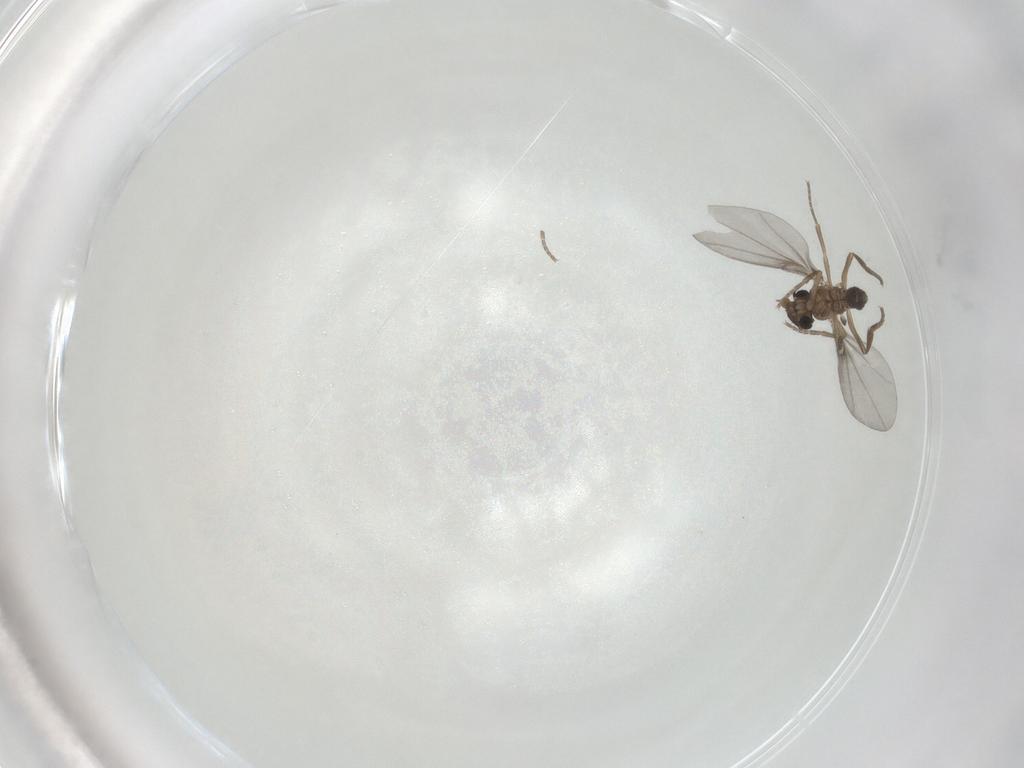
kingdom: Animalia
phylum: Arthropoda
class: Insecta
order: Diptera
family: Phoridae
